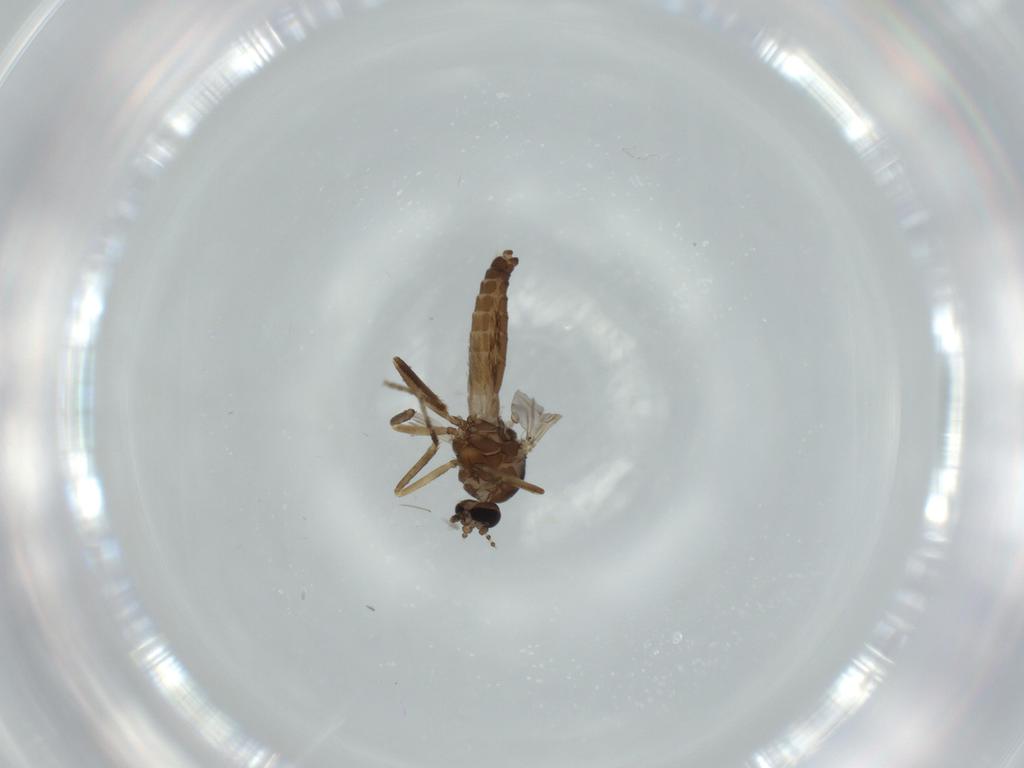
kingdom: Animalia
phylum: Arthropoda
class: Insecta
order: Diptera
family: Ceratopogonidae
